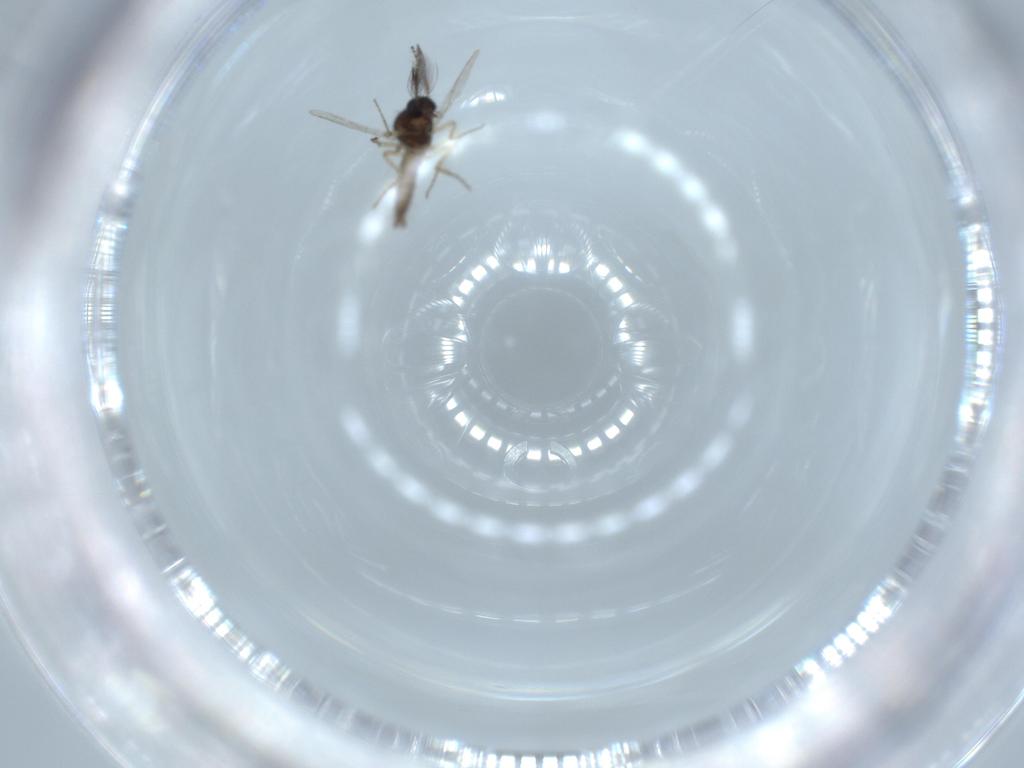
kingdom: Animalia
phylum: Arthropoda
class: Insecta
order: Diptera
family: Ceratopogonidae
